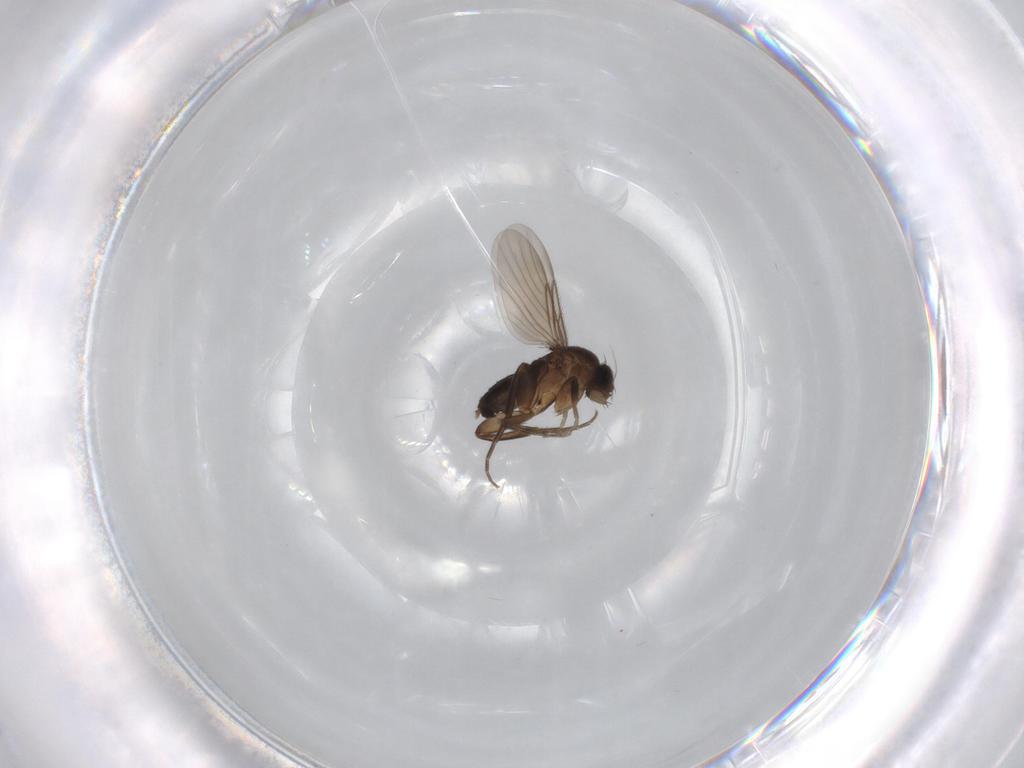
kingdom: Animalia
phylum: Arthropoda
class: Insecta
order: Diptera
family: Phoridae
